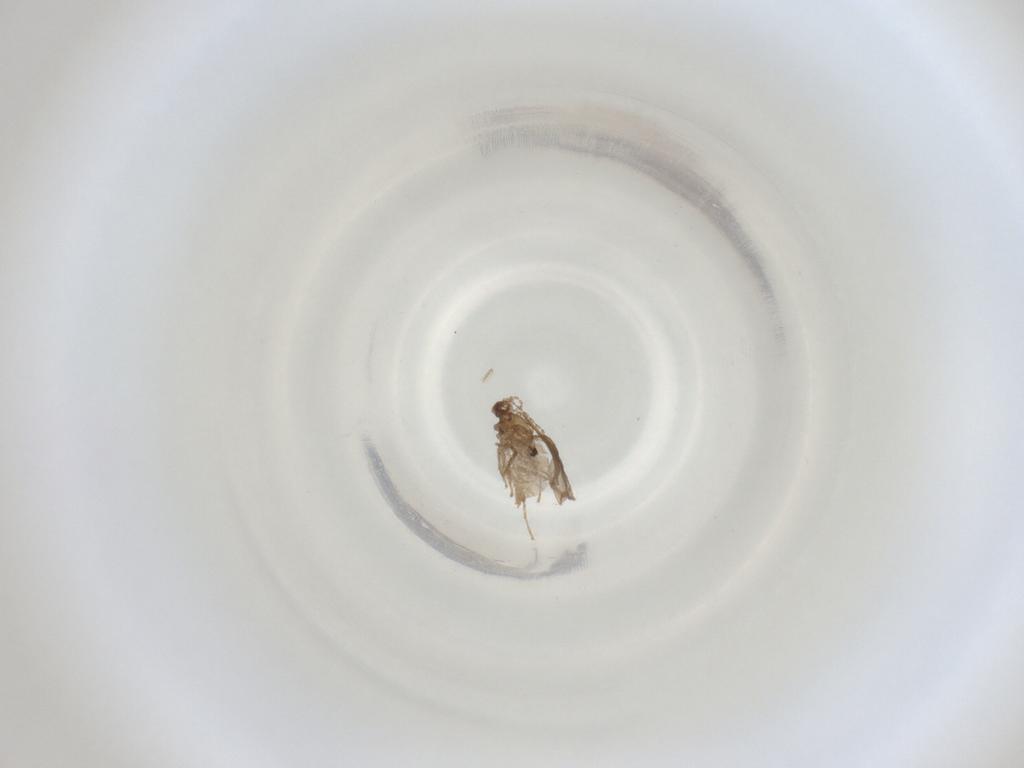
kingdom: Animalia
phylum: Arthropoda
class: Insecta
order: Diptera
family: Cecidomyiidae
